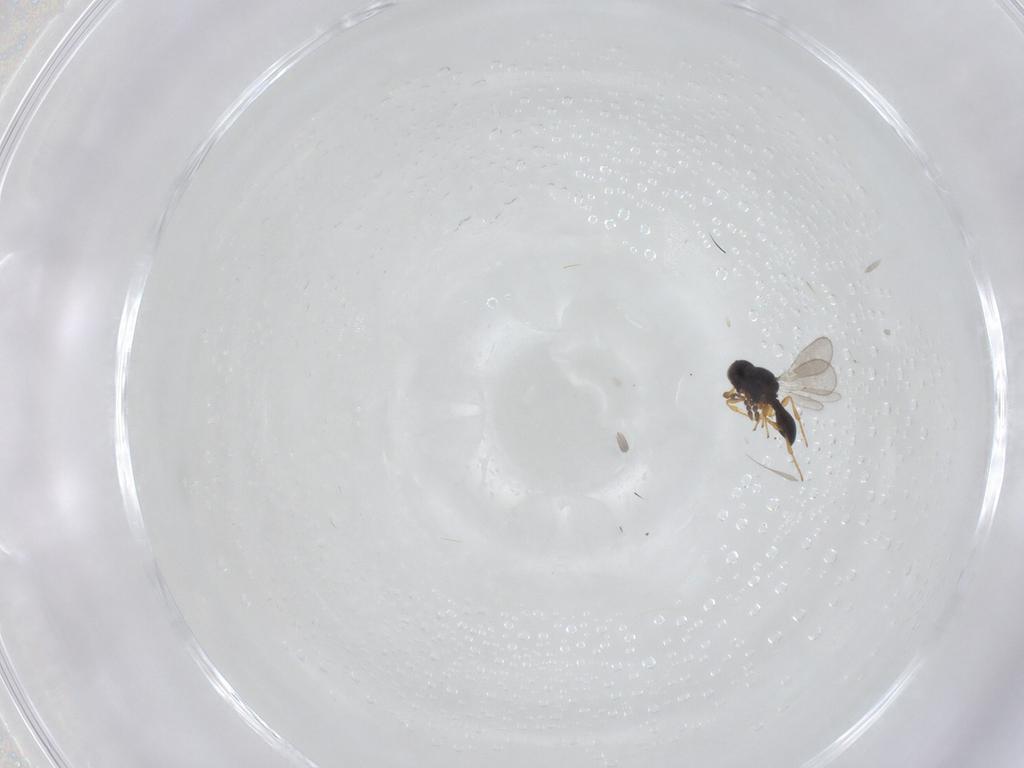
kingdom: Animalia
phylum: Arthropoda
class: Insecta
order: Hymenoptera
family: Platygastridae
